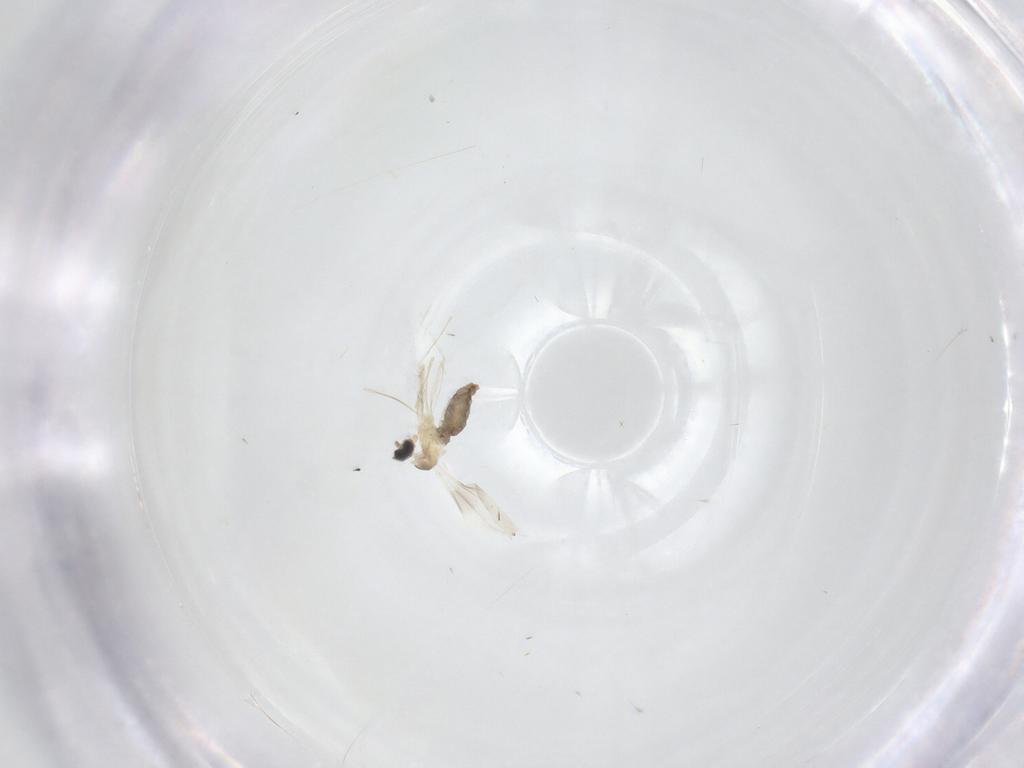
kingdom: Animalia
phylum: Arthropoda
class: Insecta
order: Diptera
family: Cecidomyiidae
